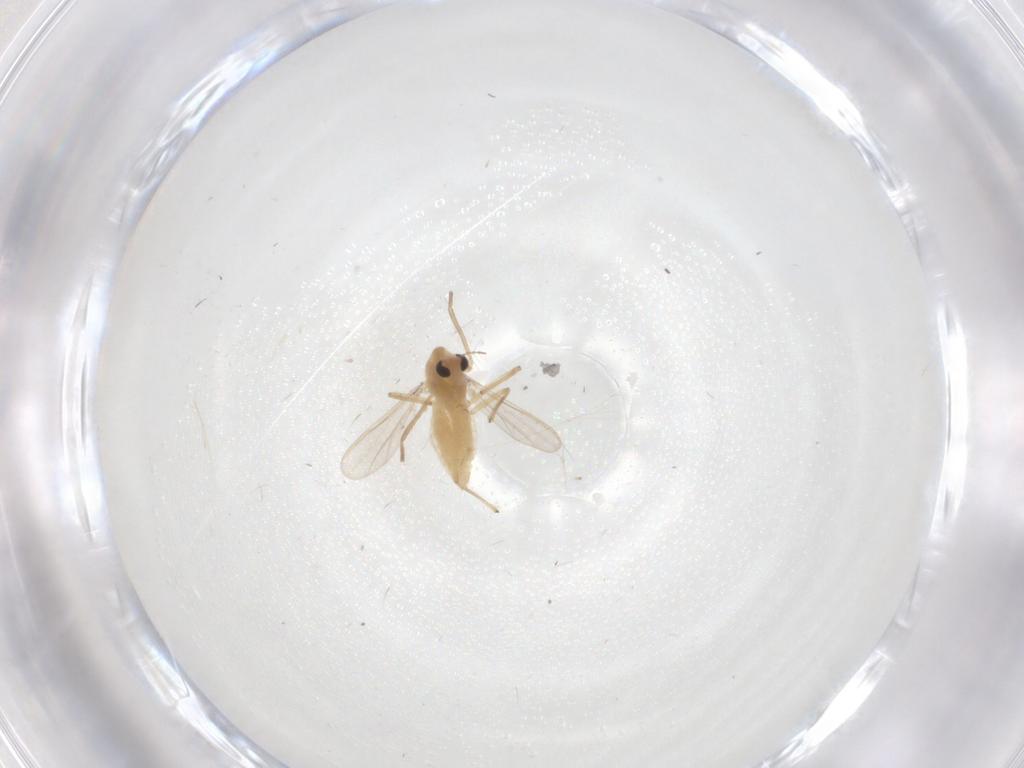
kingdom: Animalia
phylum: Arthropoda
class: Insecta
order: Diptera
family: Chironomidae
